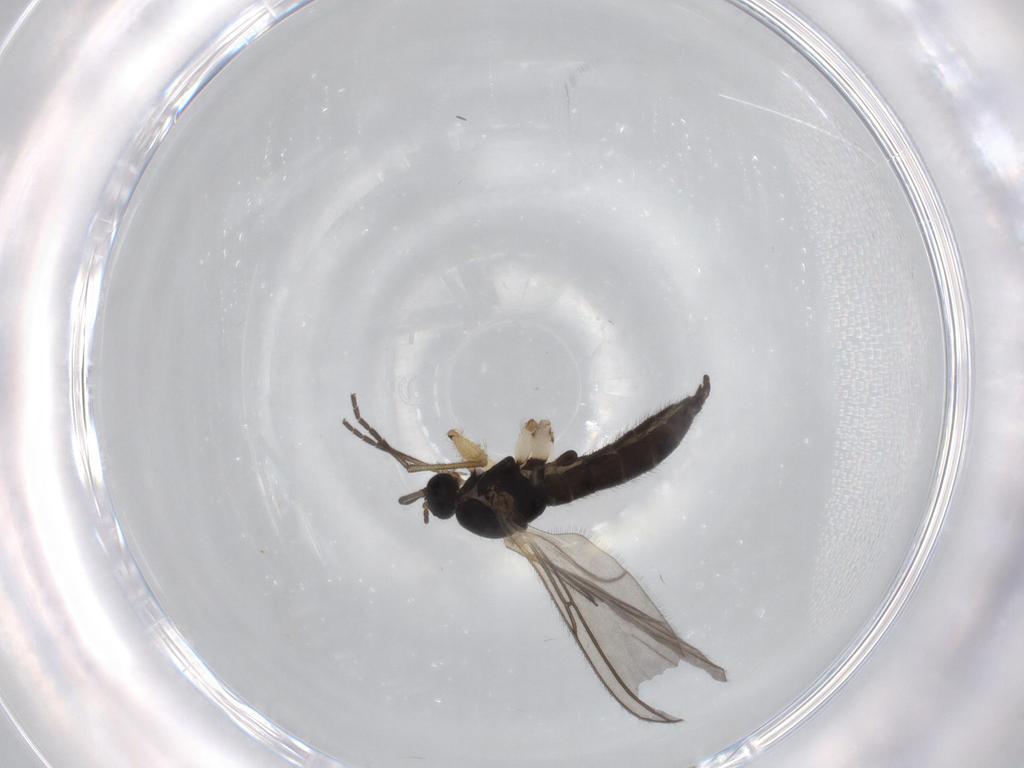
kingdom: Animalia
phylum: Arthropoda
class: Insecta
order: Diptera
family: Sciaridae
